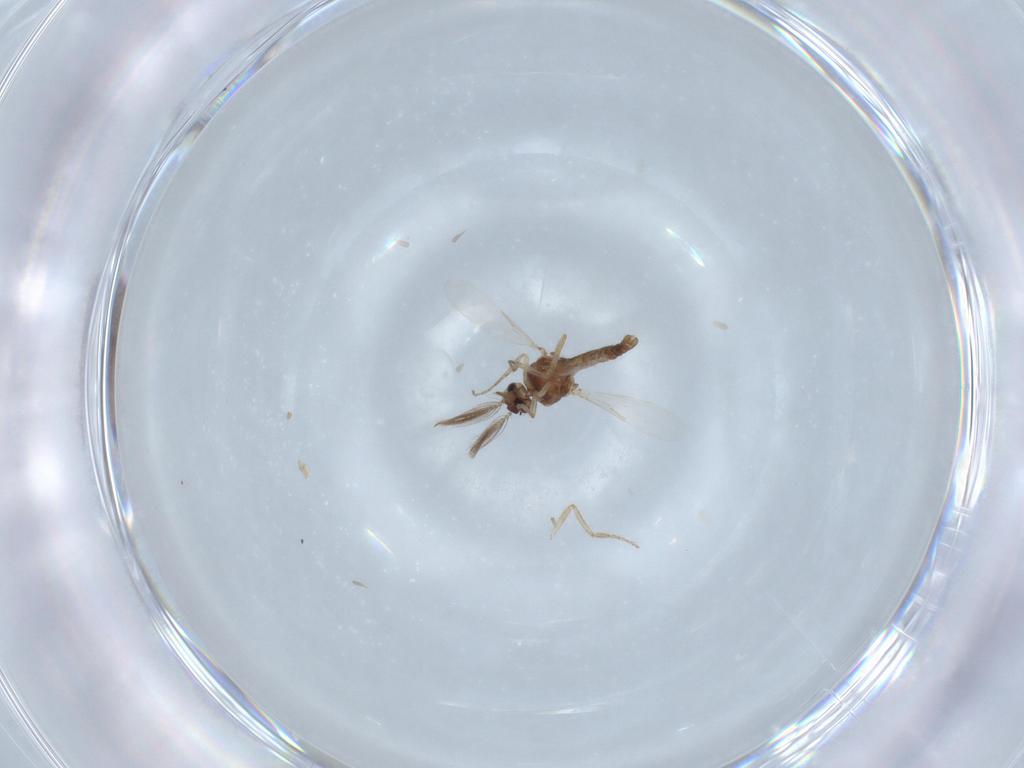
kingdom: Animalia
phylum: Arthropoda
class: Insecta
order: Diptera
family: Ceratopogonidae
